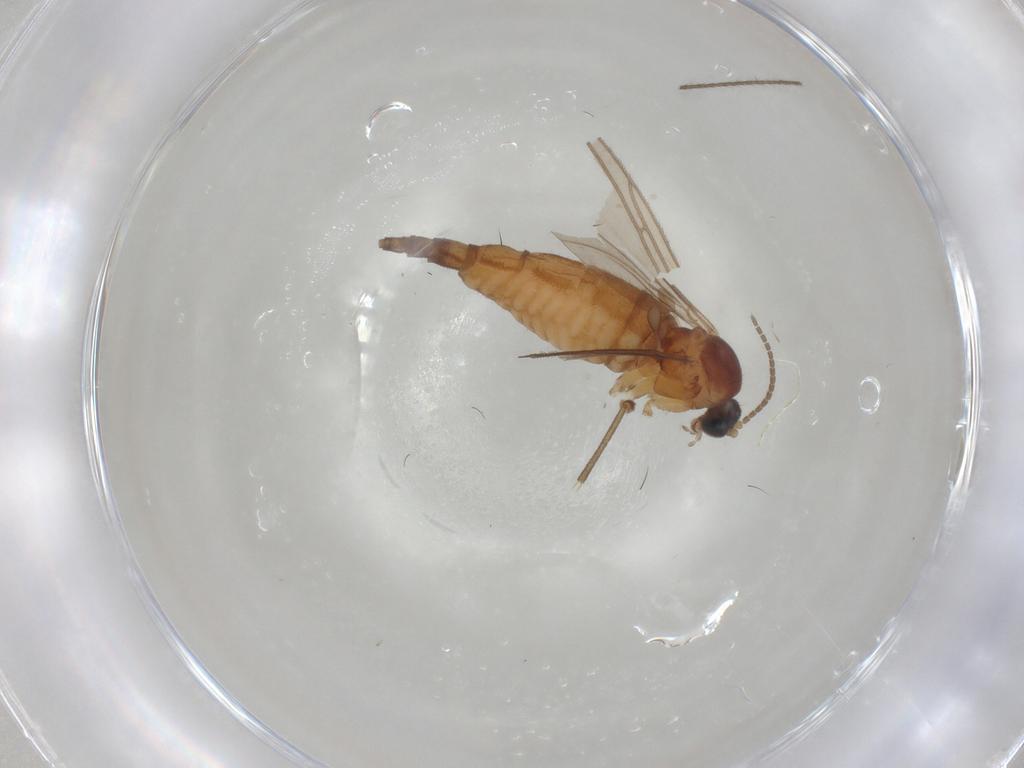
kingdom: Animalia
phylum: Arthropoda
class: Insecta
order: Diptera
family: Sciaridae
